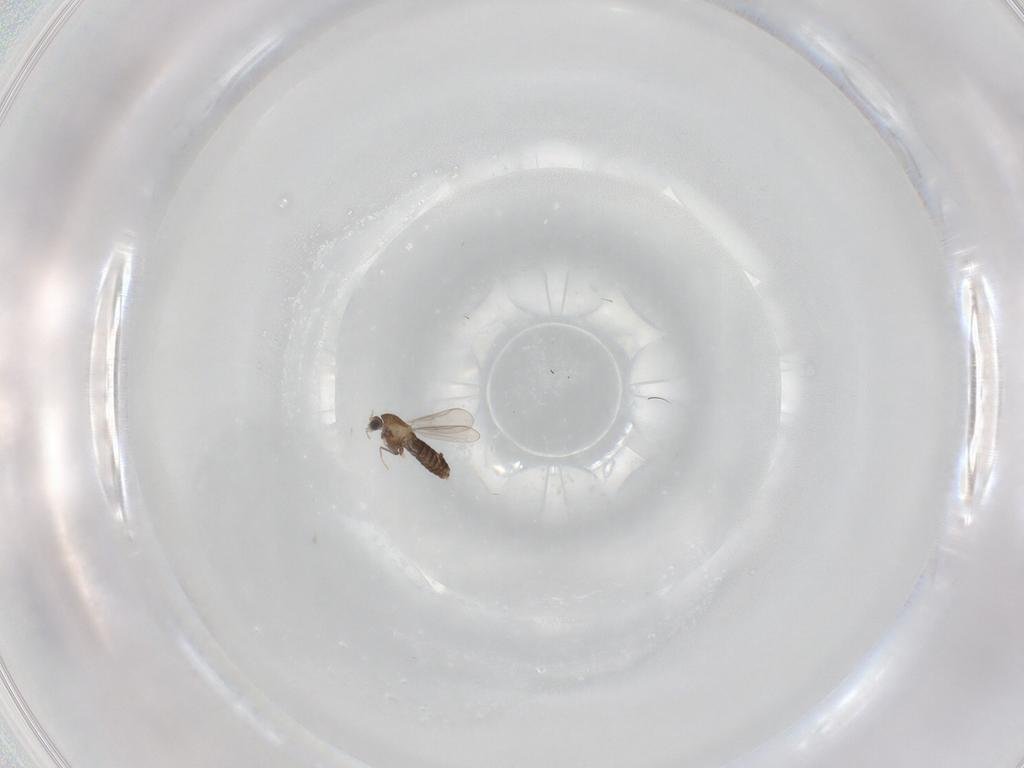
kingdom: Animalia
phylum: Arthropoda
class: Insecta
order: Diptera
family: Chironomidae
